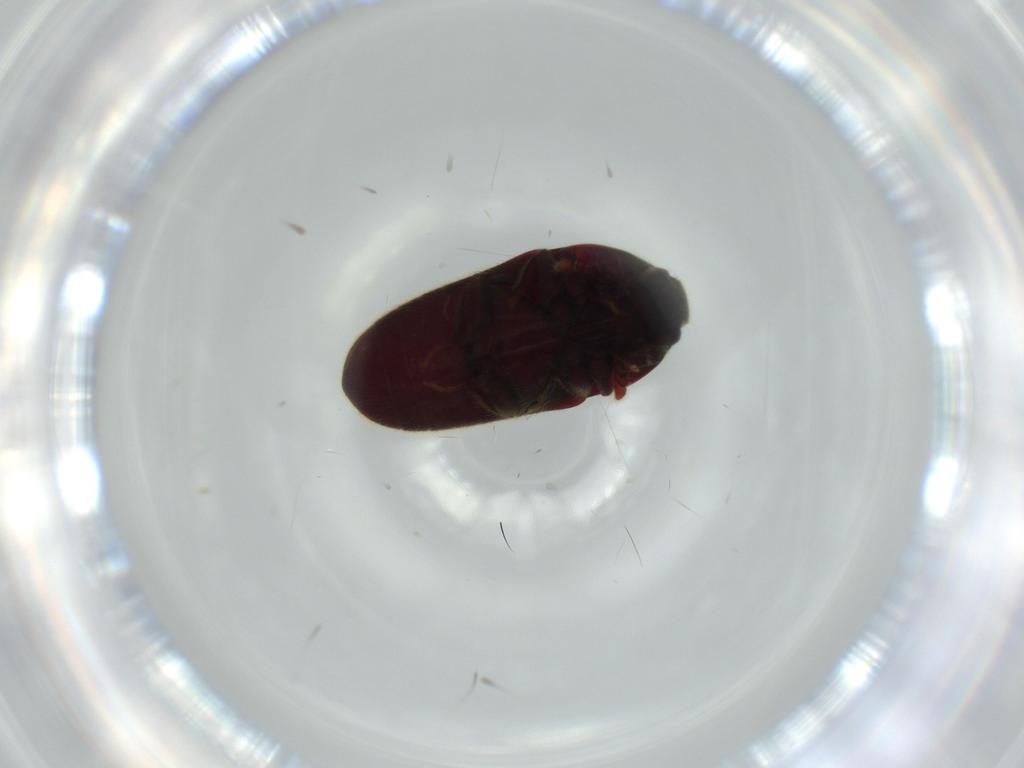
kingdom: Animalia
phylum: Arthropoda
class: Insecta
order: Coleoptera
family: Throscidae
